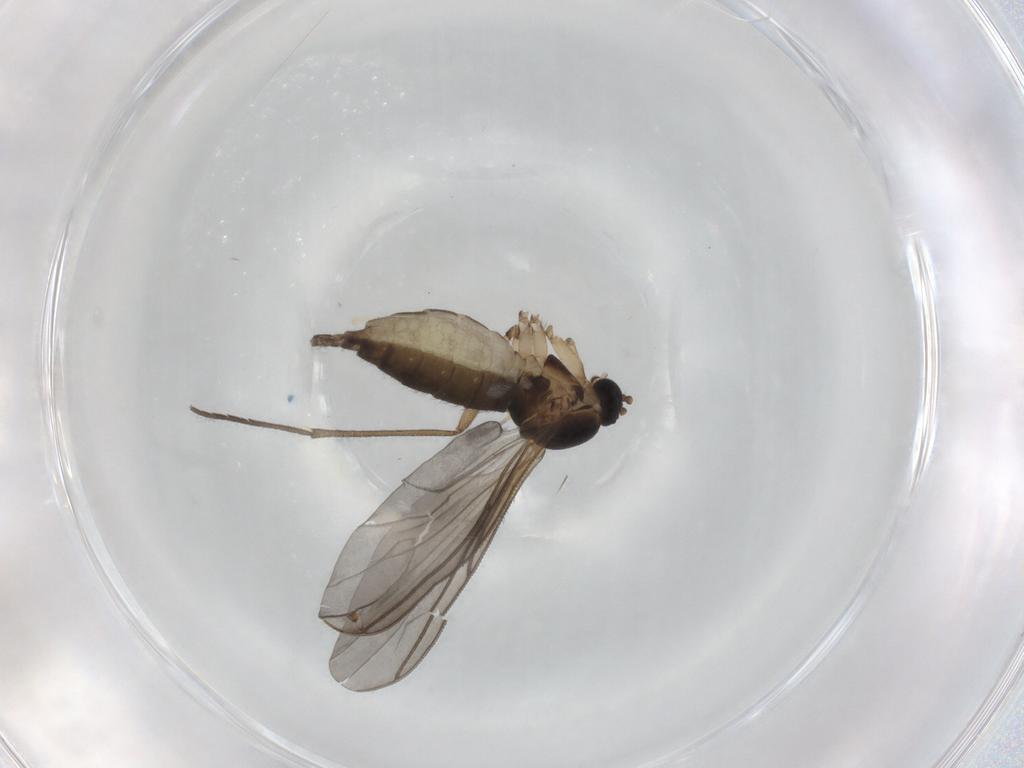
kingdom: Animalia
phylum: Arthropoda
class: Insecta
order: Diptera
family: Sciaridae
